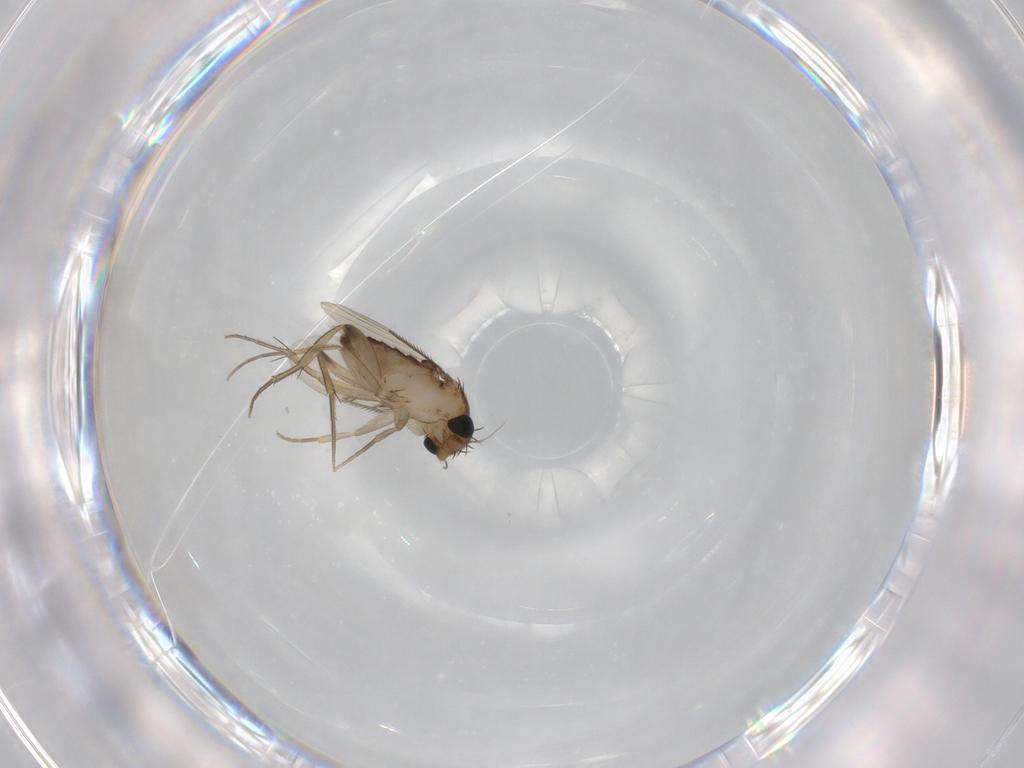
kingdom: Animalia
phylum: Arthropoda
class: Insecta
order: Diptera
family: Phoridae
